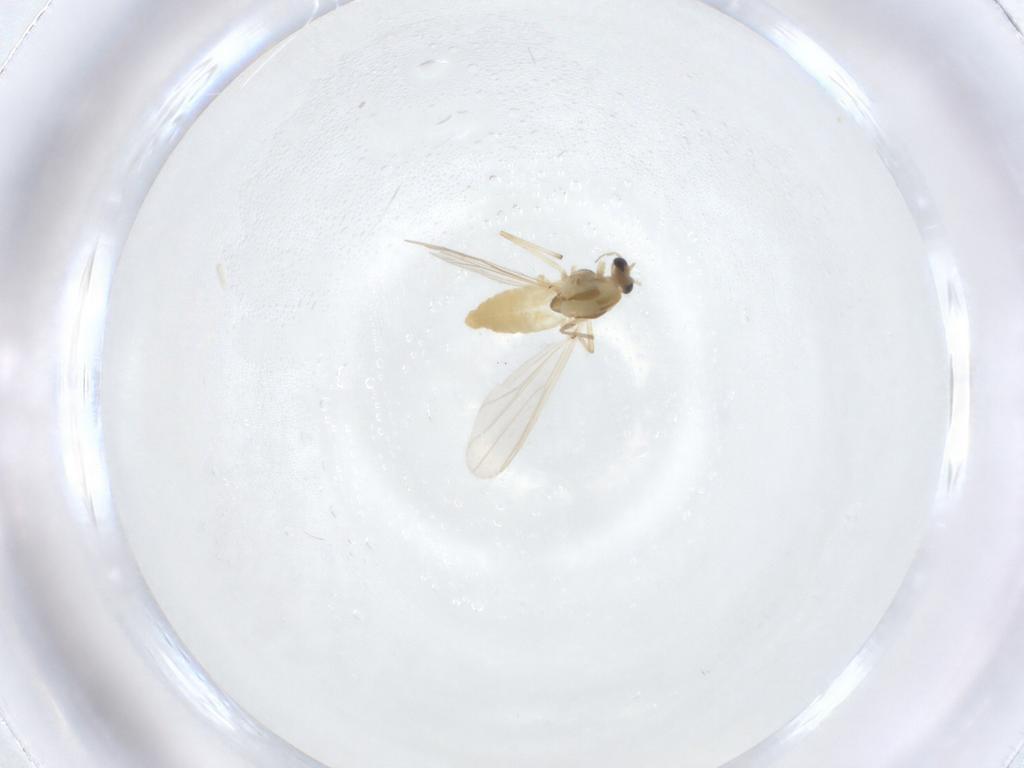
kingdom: Animalia
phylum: Arthropoda
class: Insecta
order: Diptera
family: Chironomidae
